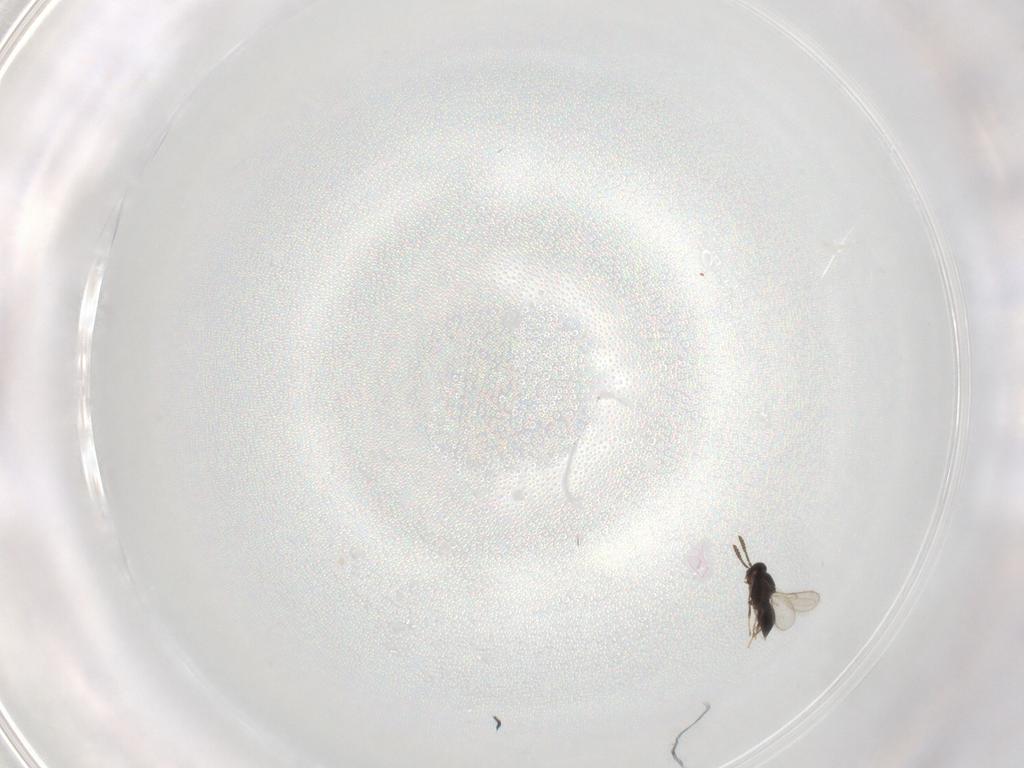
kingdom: Animalia
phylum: Arthropoda
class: Insecta
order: Hymenoptera
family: Scelionidae
